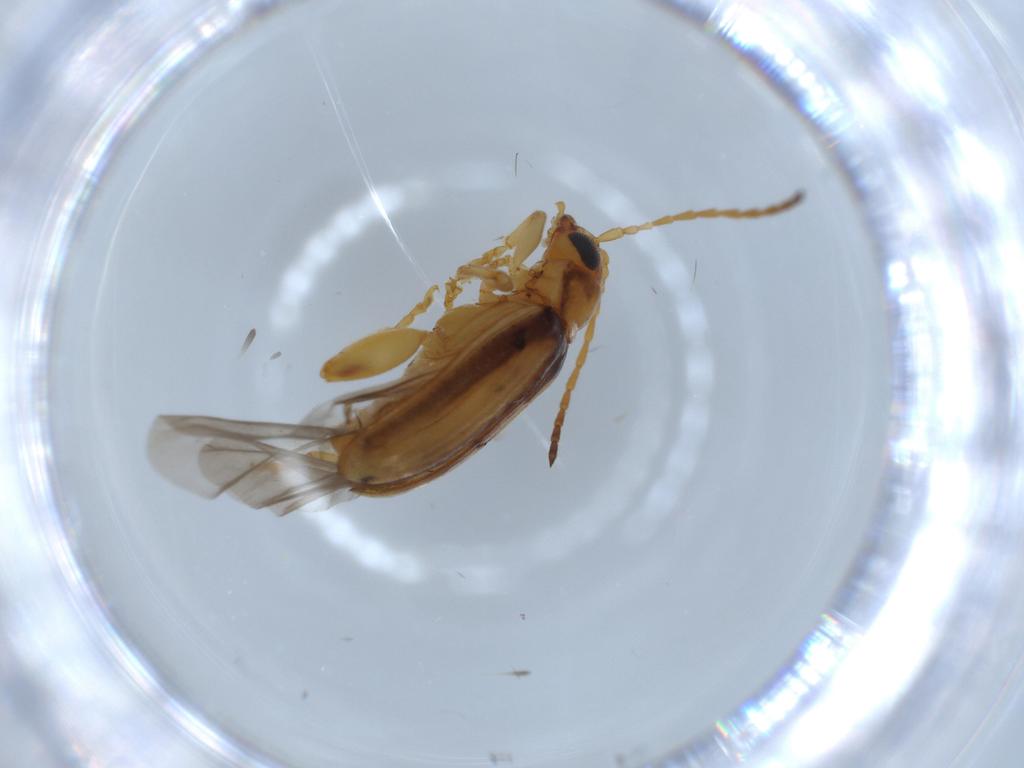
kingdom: Animalia
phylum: Arthropoda
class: Insecta
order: Coleoptera
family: Chrysomelidae
